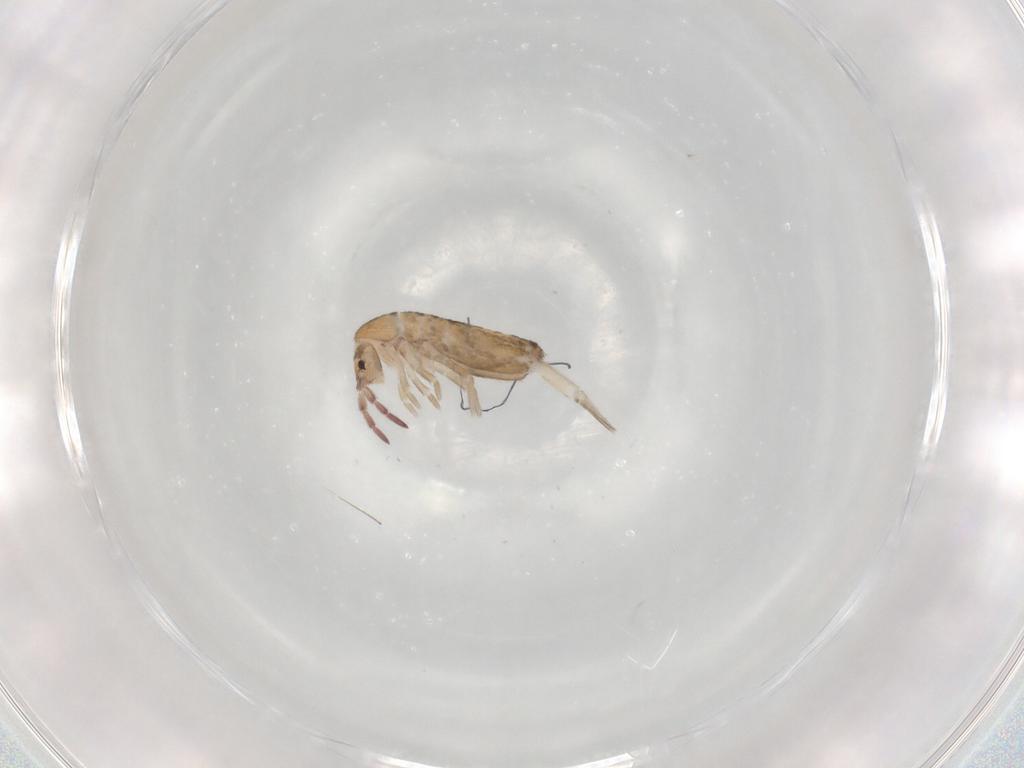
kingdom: Animalia
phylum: Arthropoda
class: Collembola
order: Entomobryomorpha
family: Entomobryidae
